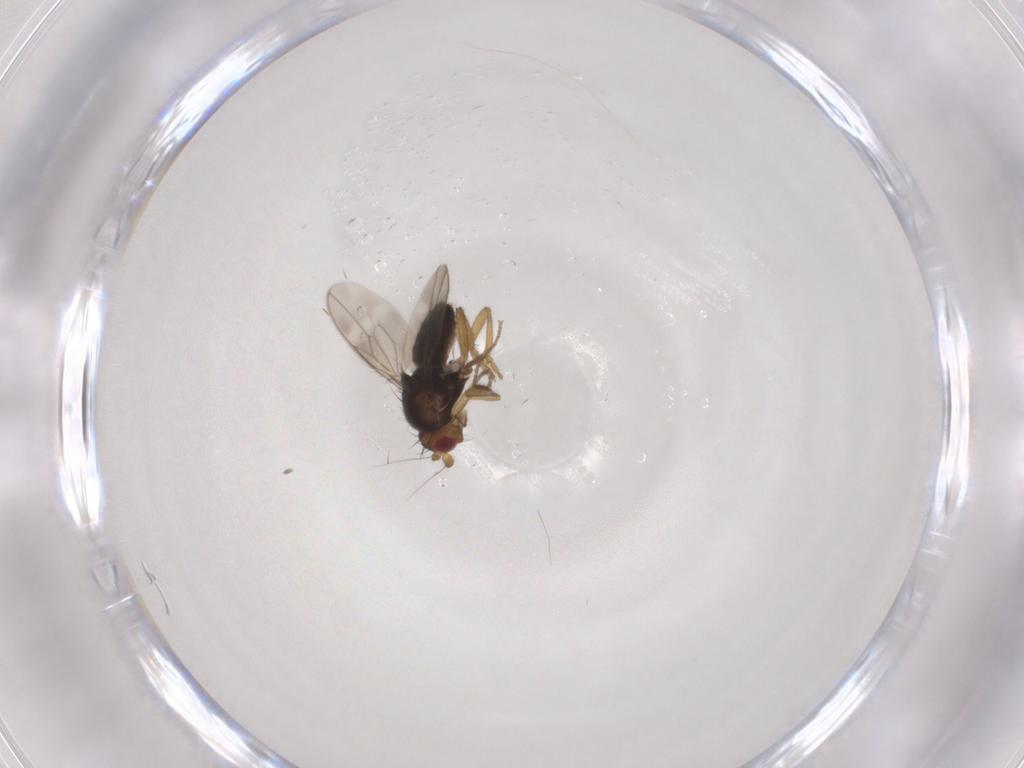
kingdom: Animalia
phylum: Arthropoda
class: Insecta
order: Diptera
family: Sphaeroceridae
